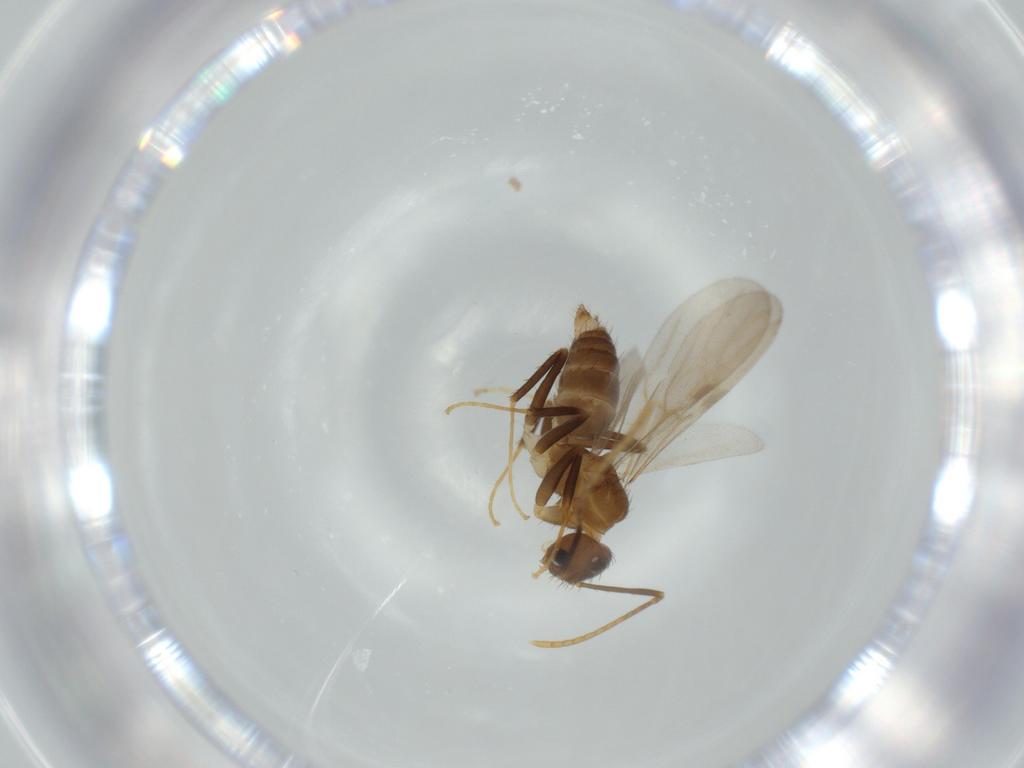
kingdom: Animalia
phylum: Arthropoda
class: Insecta
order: Hymenoptera
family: Formicidae
